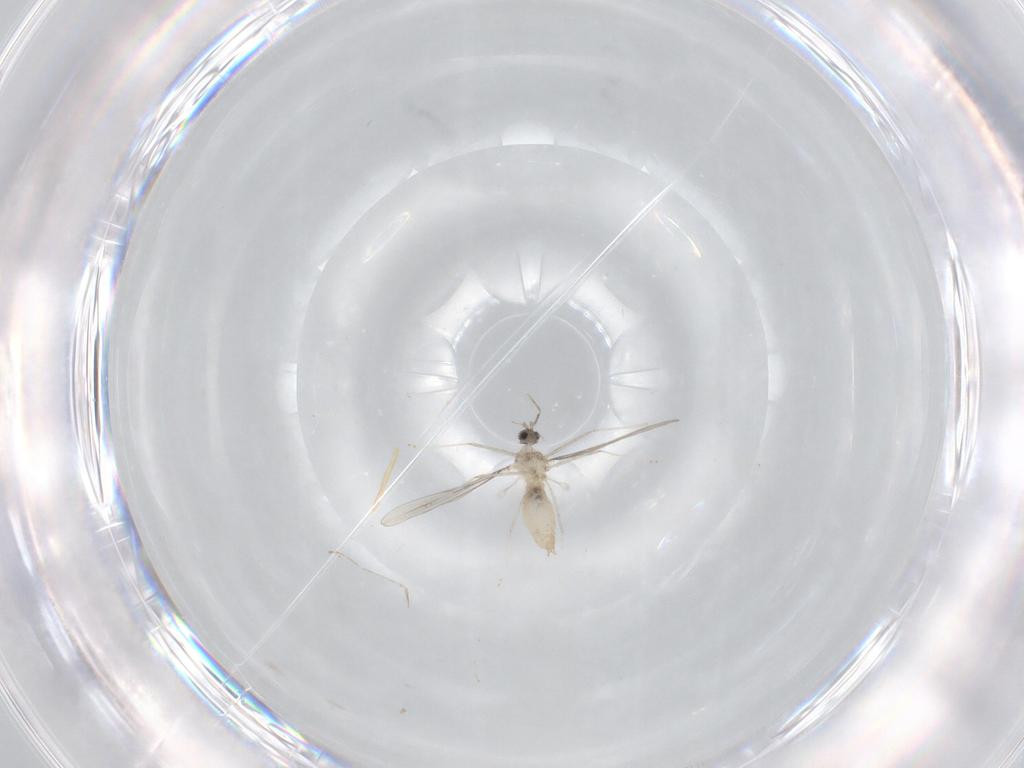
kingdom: Animalia
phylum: Arthropoda
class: Insecta
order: Diptera
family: Cecidomyiidae
